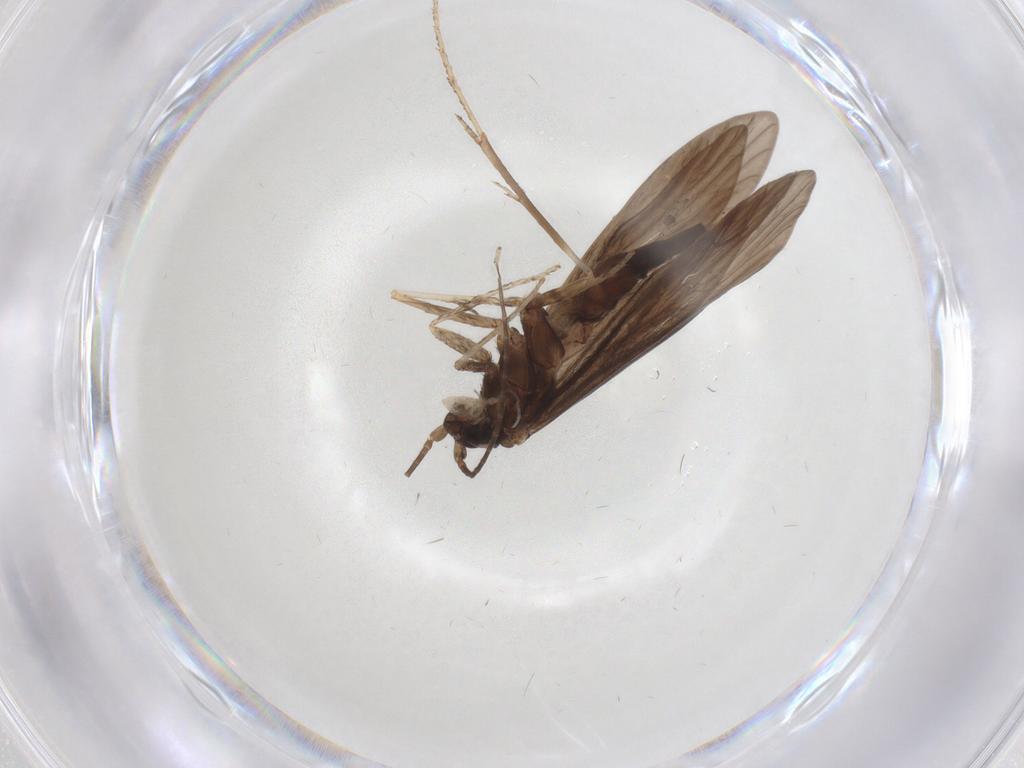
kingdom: Animalia
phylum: Arthropoda
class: Insecta
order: Trichoptera
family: Xiphocentronidae
